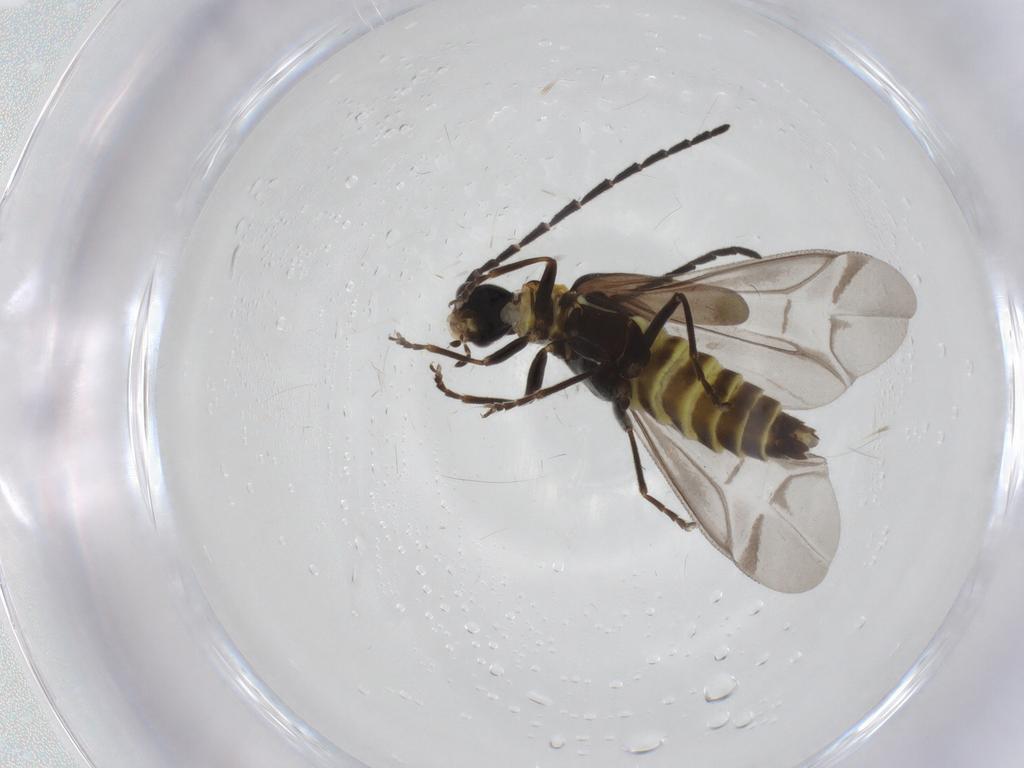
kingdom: Animalia
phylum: Arthropoda
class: Insecta
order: Coleoptera
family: Cantharidae
